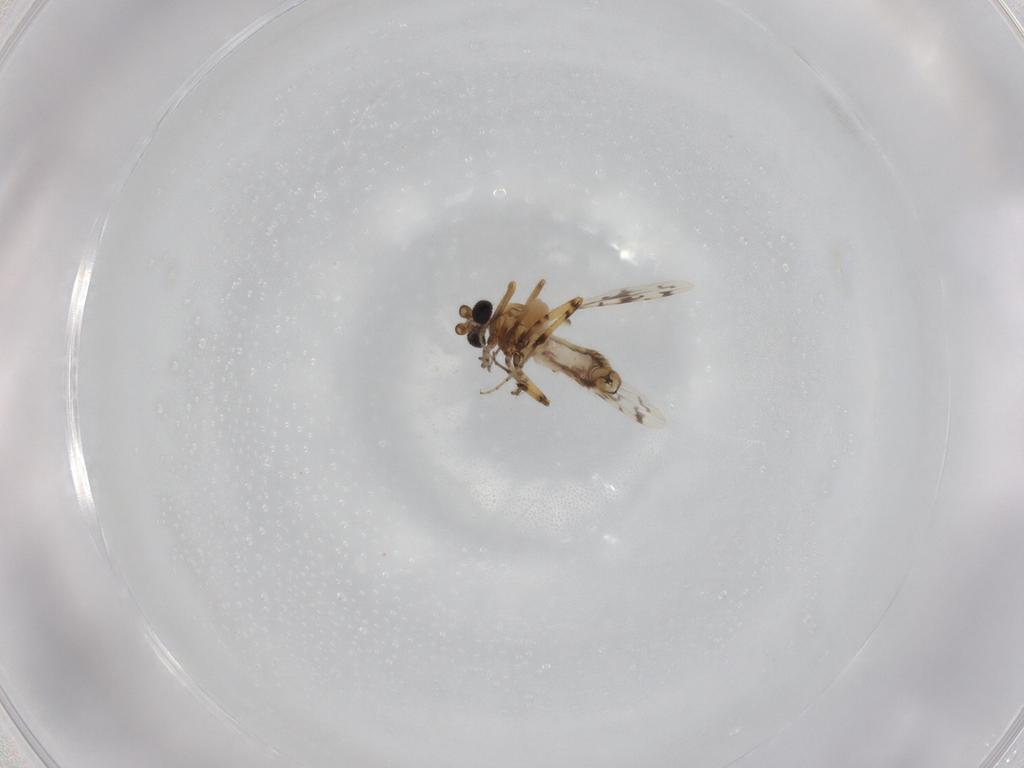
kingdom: Animalia
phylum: Arthropoda
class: Insecta
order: Diptera
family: Ceratopogonidae
